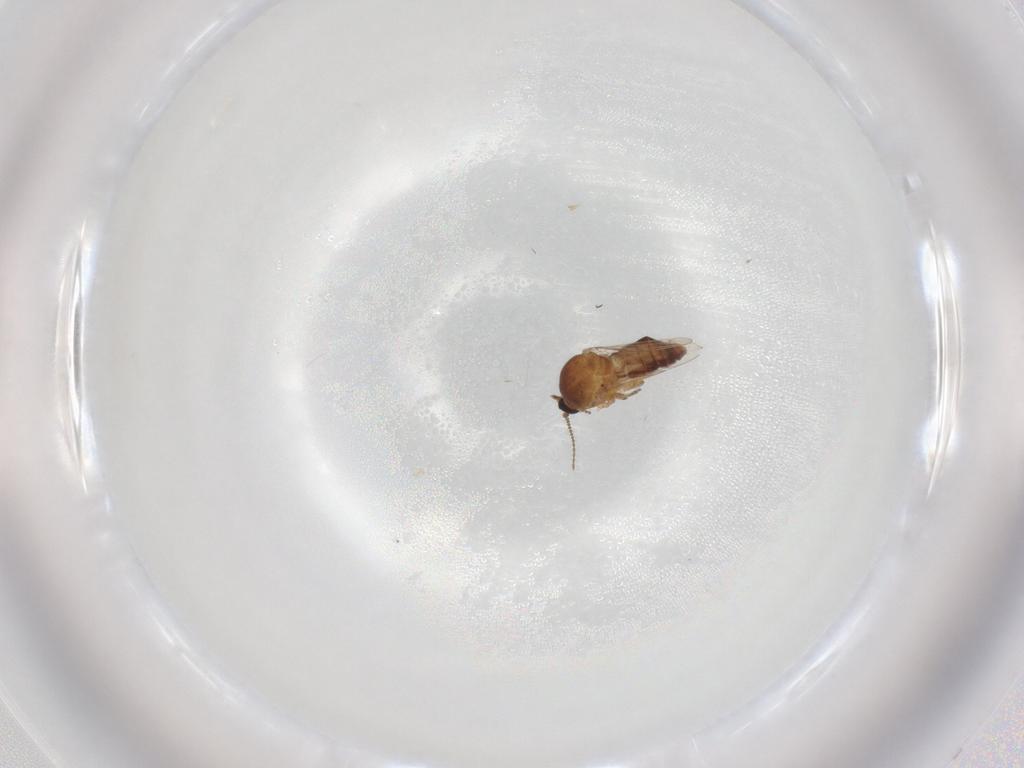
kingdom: Animalia
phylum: Arthropoda
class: Insecta
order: Diptera
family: Ceratopogonidae
